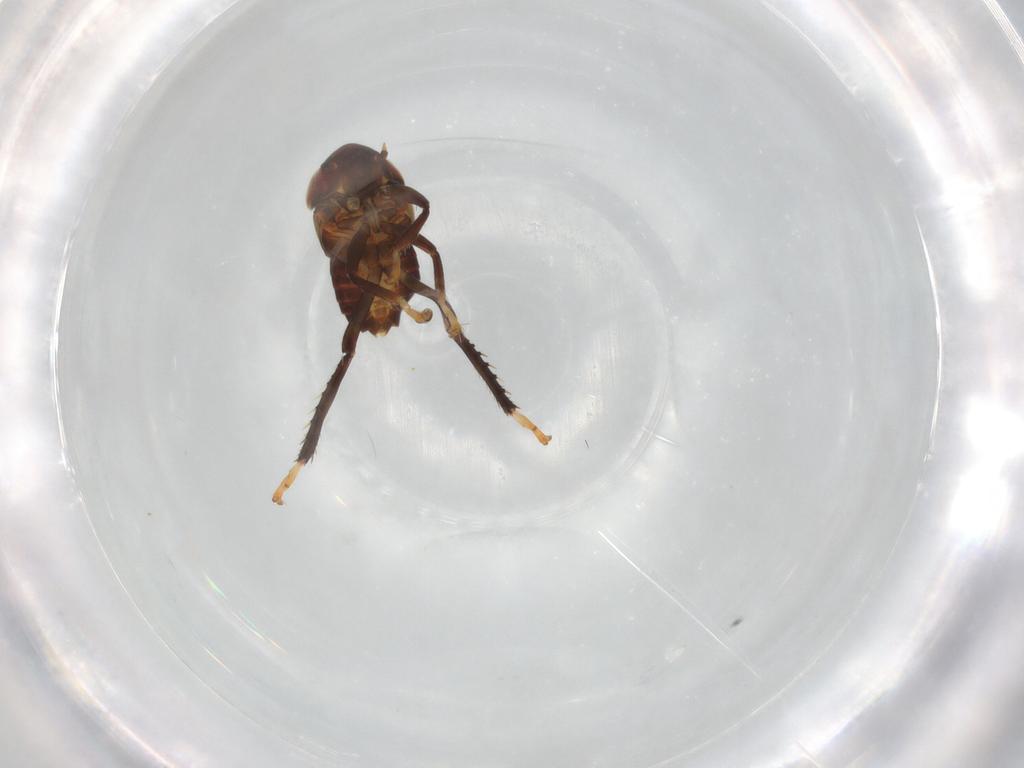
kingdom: Animalia
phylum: Arthropoda
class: Insecta
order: Hemiptera
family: Cicadellidae
